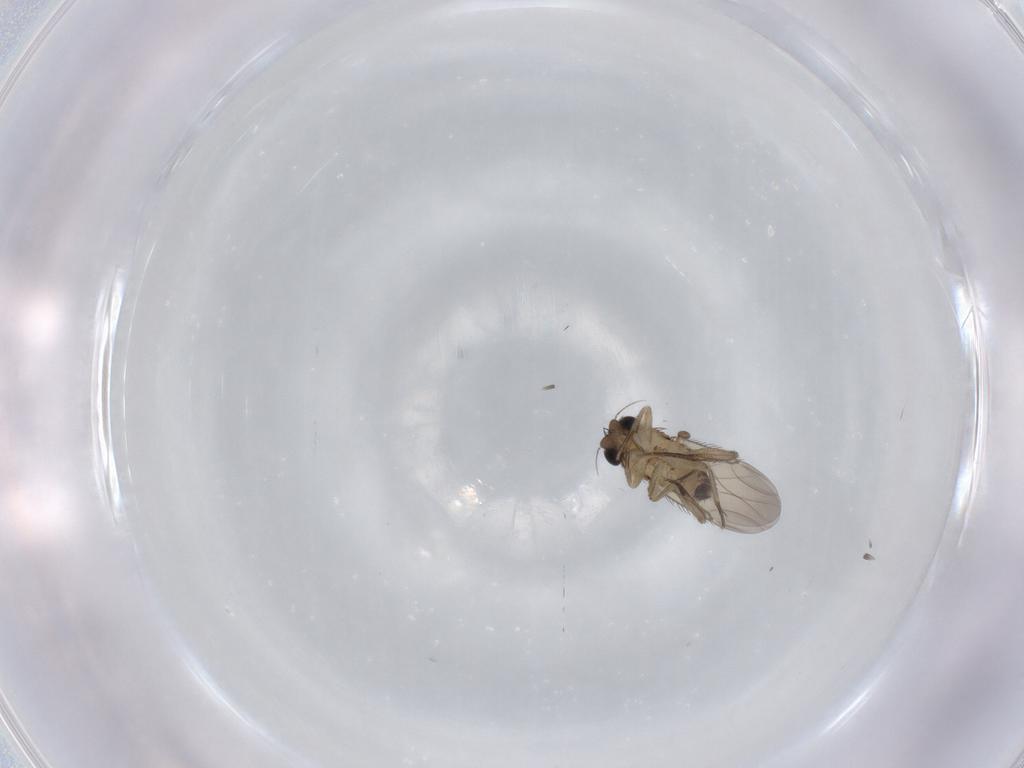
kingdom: Animalia
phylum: Arthropoda
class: Insecta
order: Diptera
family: Phoridae
